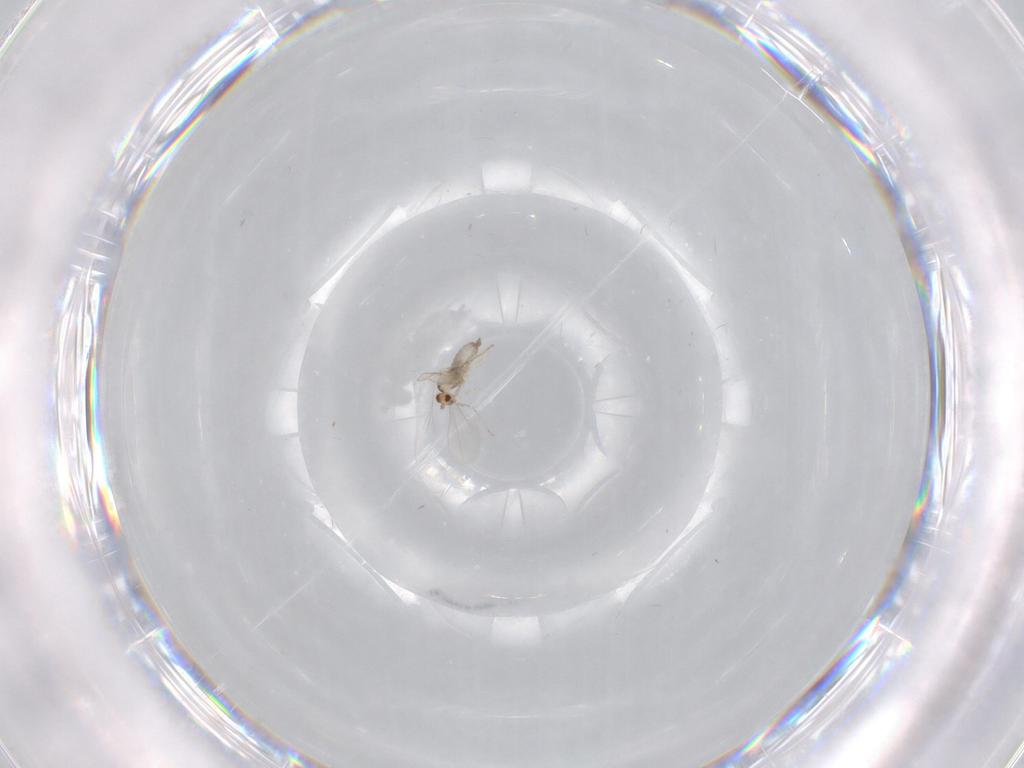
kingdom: Animalia
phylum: Arthropoda
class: Insecta
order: Diptera
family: Cecidomyiidae
